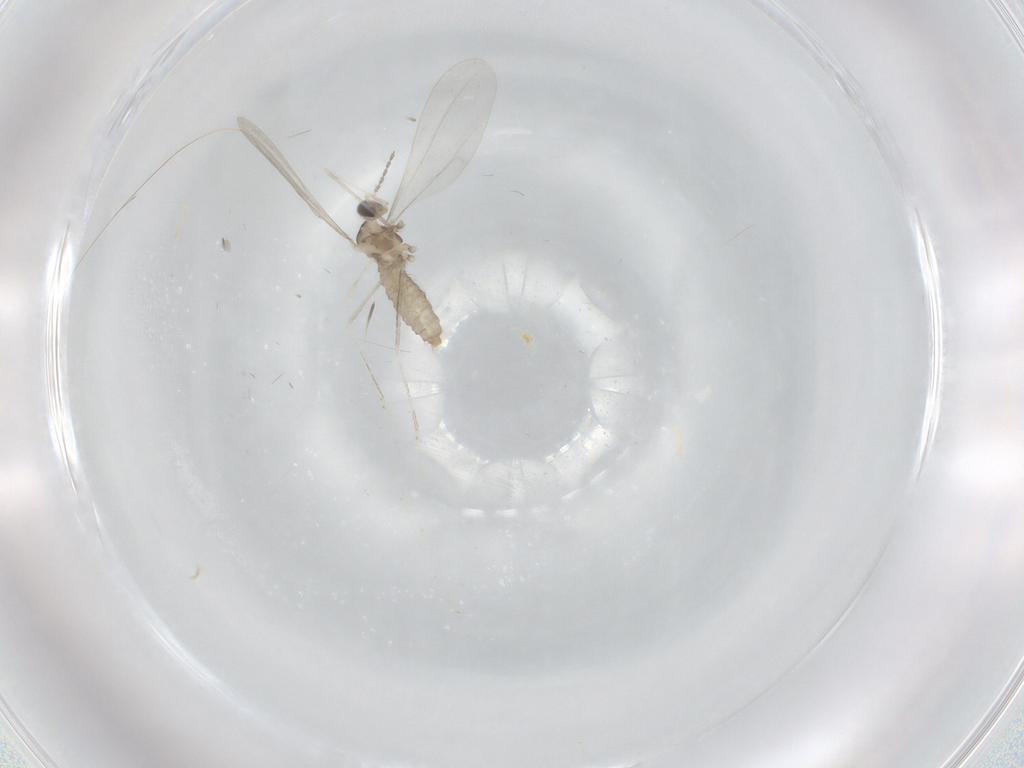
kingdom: Animalia
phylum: Arthropoda
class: Insecta
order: Diptera
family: Cecidomyiidae
